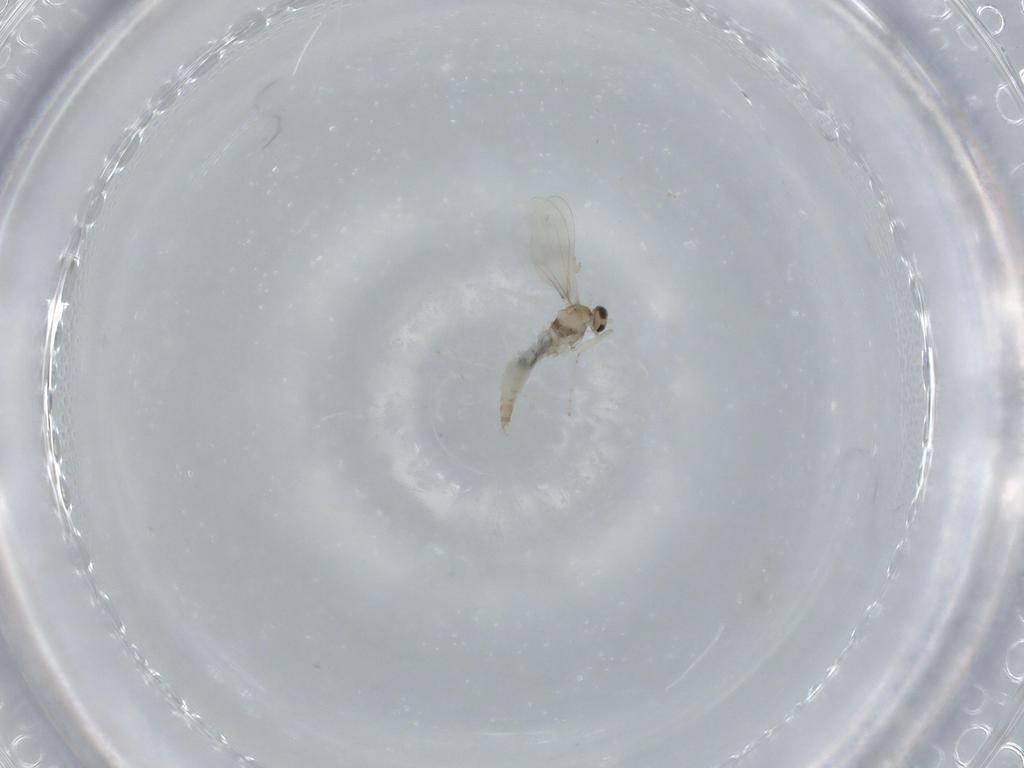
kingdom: Animalia
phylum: Arthropoda
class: Insecta
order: Diptera
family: Cecidomyiidae
